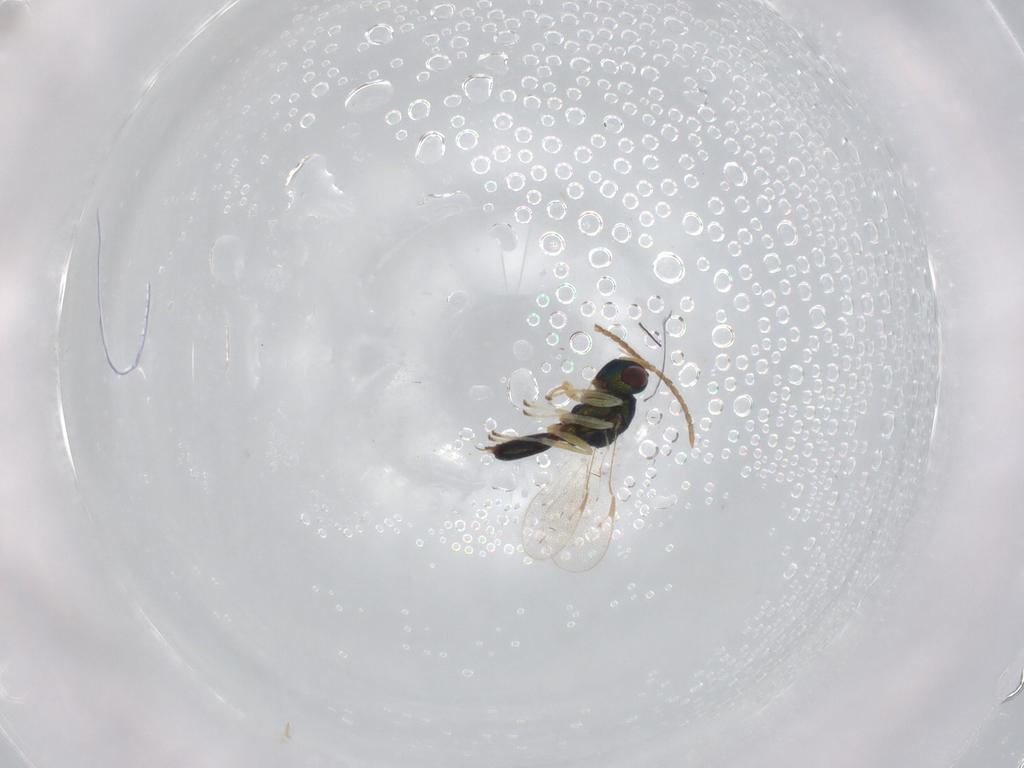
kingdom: Animalia
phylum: Arthropoda
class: Insecta
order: Hymenoptera
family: Pteromalidae
